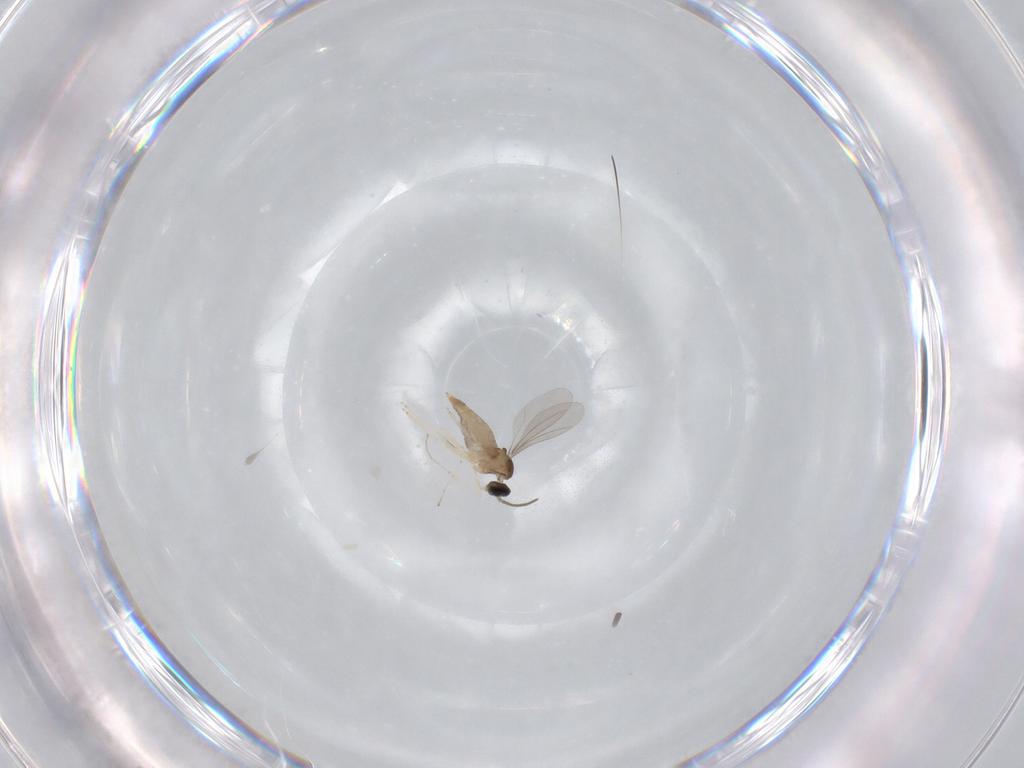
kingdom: Animalia
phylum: Arthropoda
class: Insecta
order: Diptera
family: Cecidomyiidae
